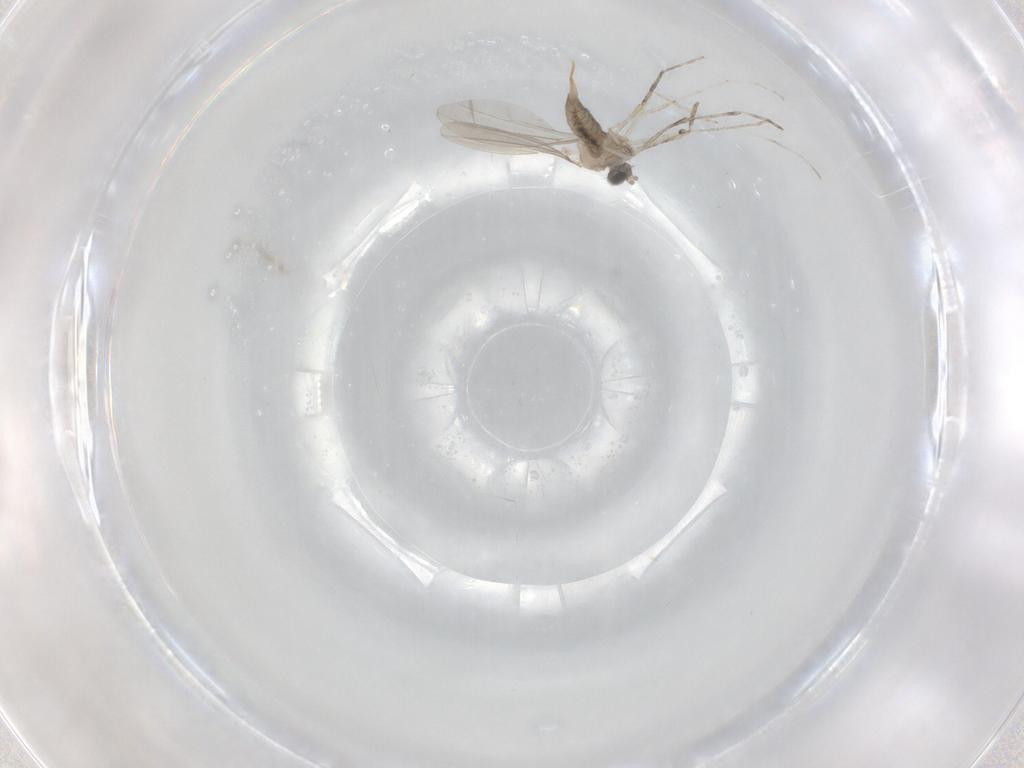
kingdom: Animalia
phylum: Arthropoda
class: Insecta
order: Diptera
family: Cecidomyiidae
